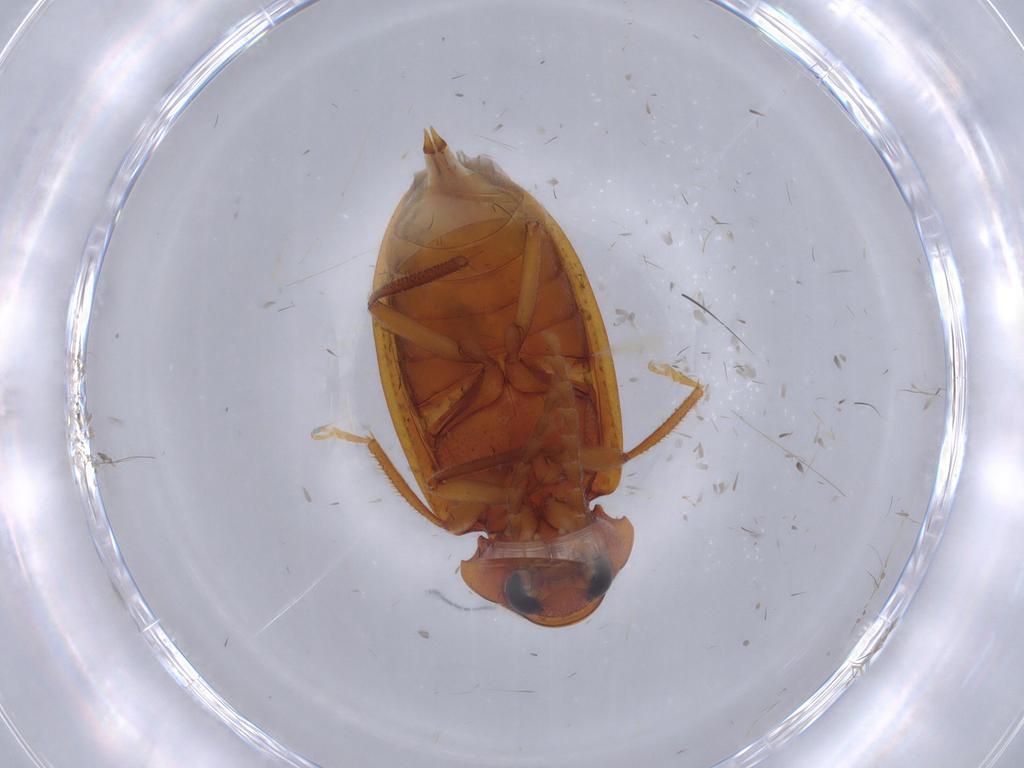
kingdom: Animalia
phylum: Arthropoda
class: Insecta
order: Coleoptera
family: Ptilodactylidae
